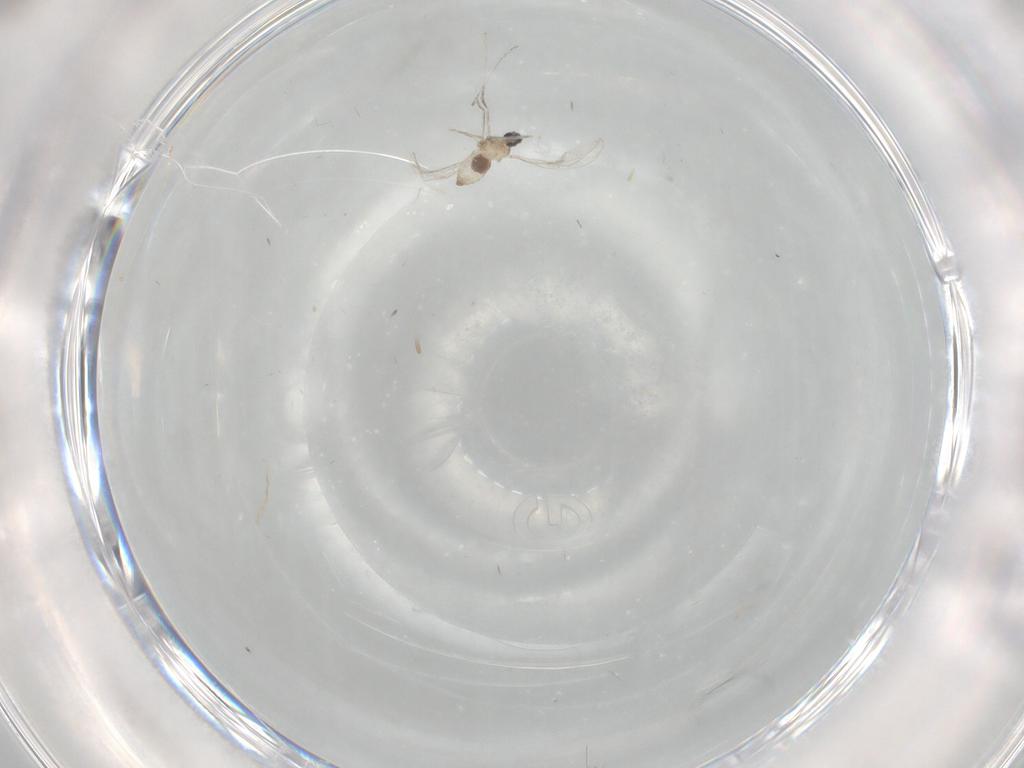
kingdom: Animalia
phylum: Arthropoda
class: Insecta
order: Diptera
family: Cecidomyiidae
